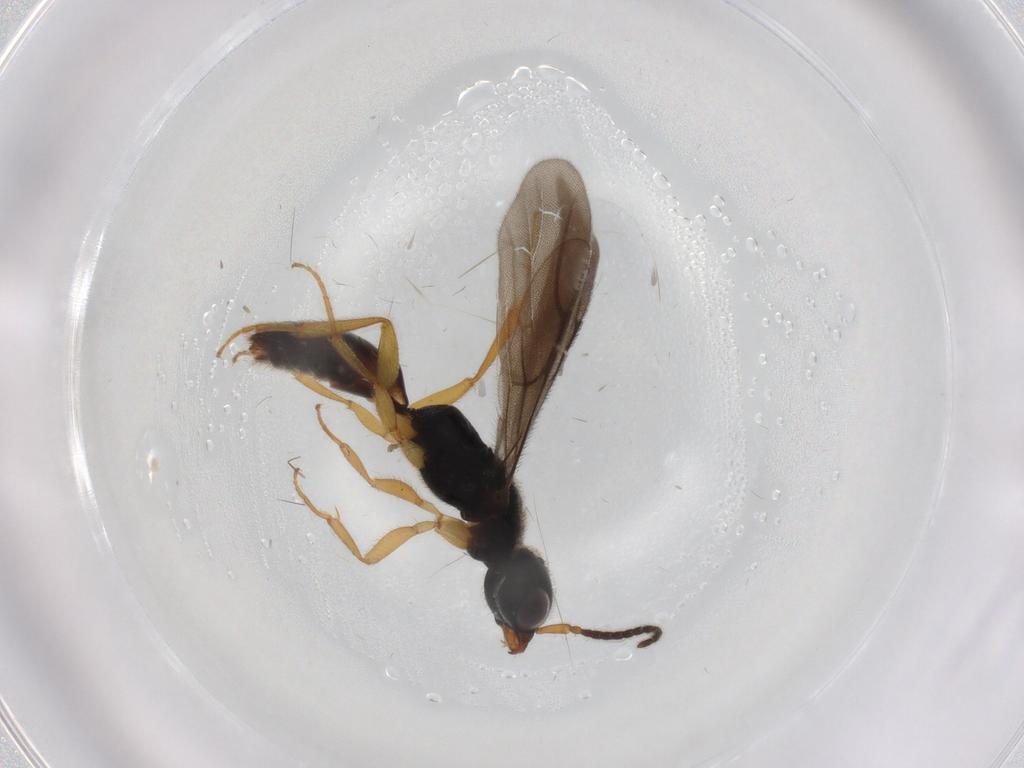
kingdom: Animalia
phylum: Arthropoda
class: Insecta
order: Hymenoptera
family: Bethylidae
